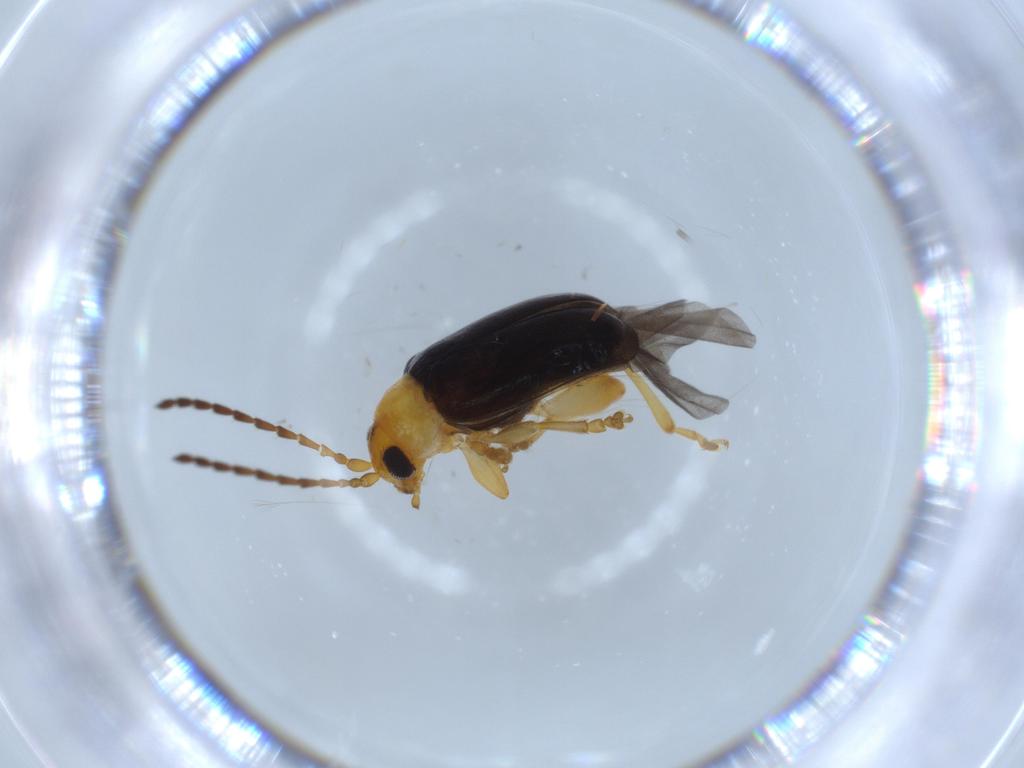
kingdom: Animalia
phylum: Arthropoda
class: Insecta
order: Coleoptera
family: Chrysomelidae
